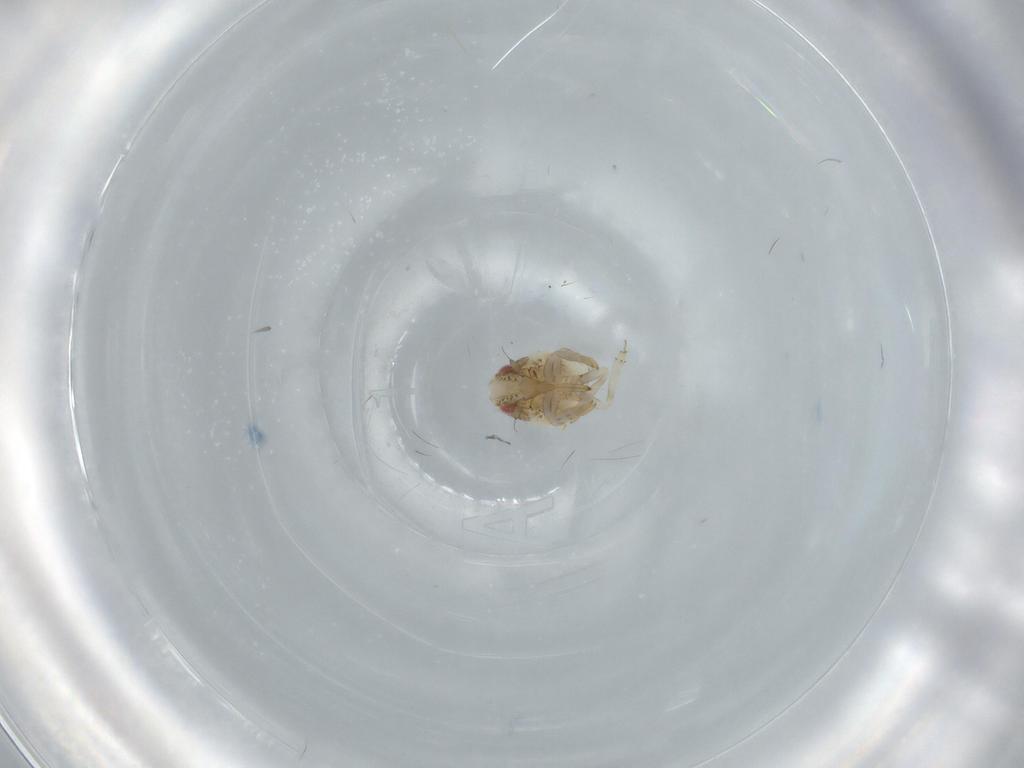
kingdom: Animalia
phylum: Arthropoda
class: Insecta
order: Hemiptera
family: Acanaloniidae
